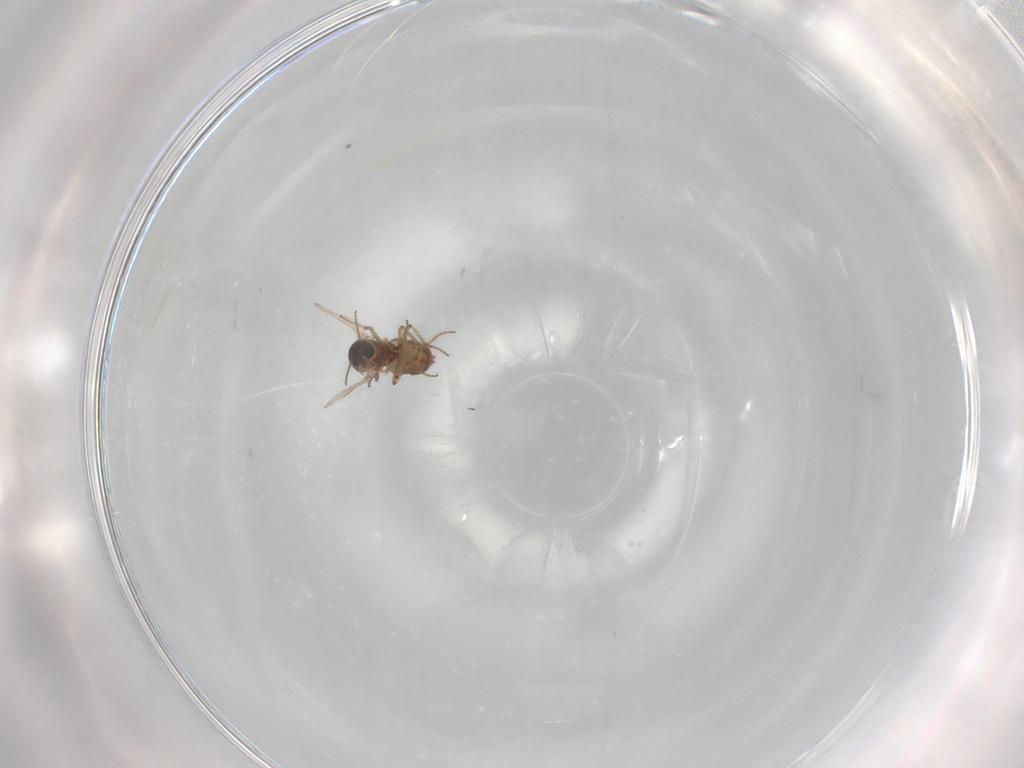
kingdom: Animalia
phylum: Arthropoda
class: Insecta
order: Diptera
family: Ceratopogonidae
